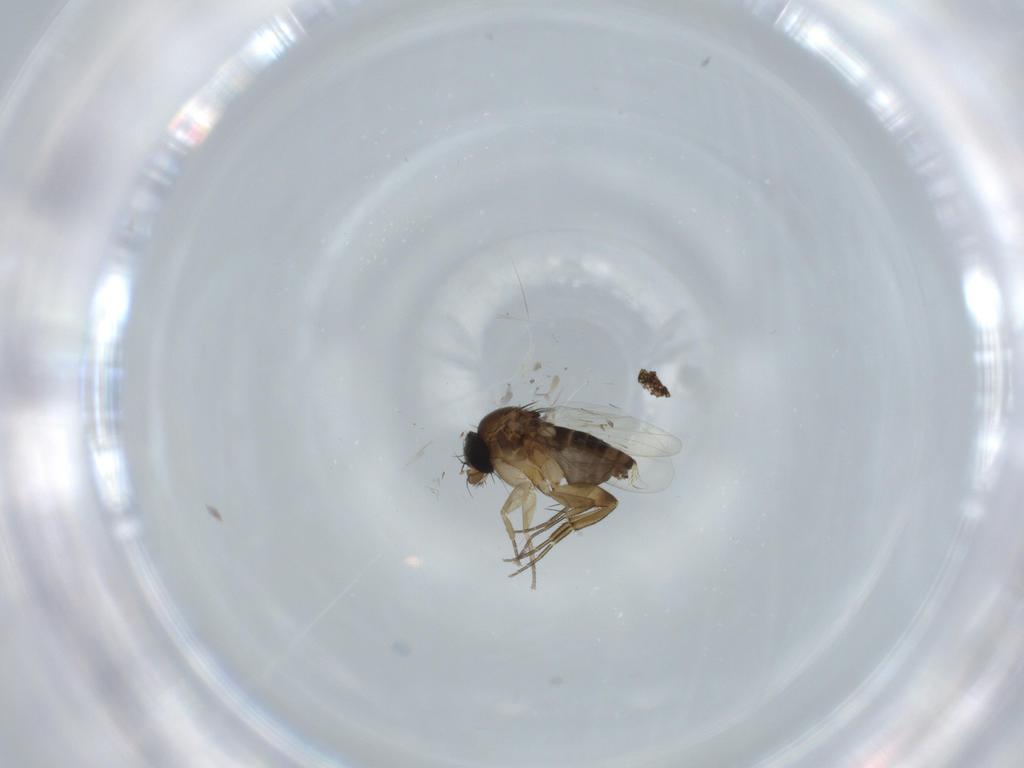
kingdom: Animalia
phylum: Arthropoda
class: Insecta
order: Diptera
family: Phoridae
